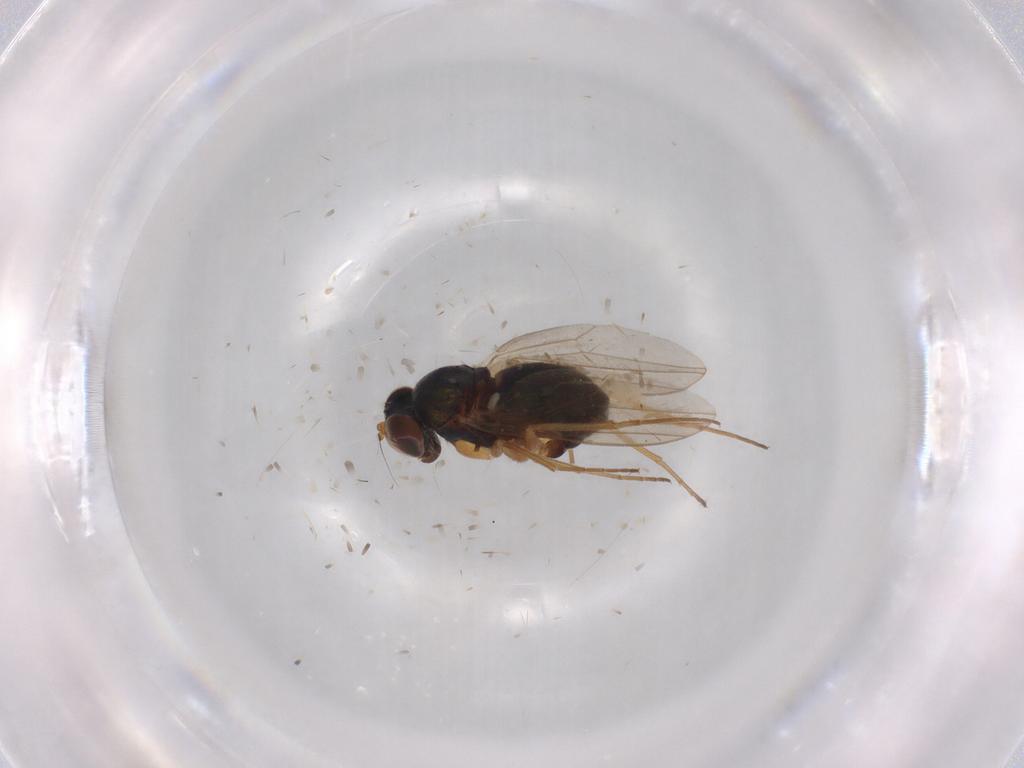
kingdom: Animalia
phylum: Arthropoda
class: Insecta
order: Diptera
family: Dolichopodidae
